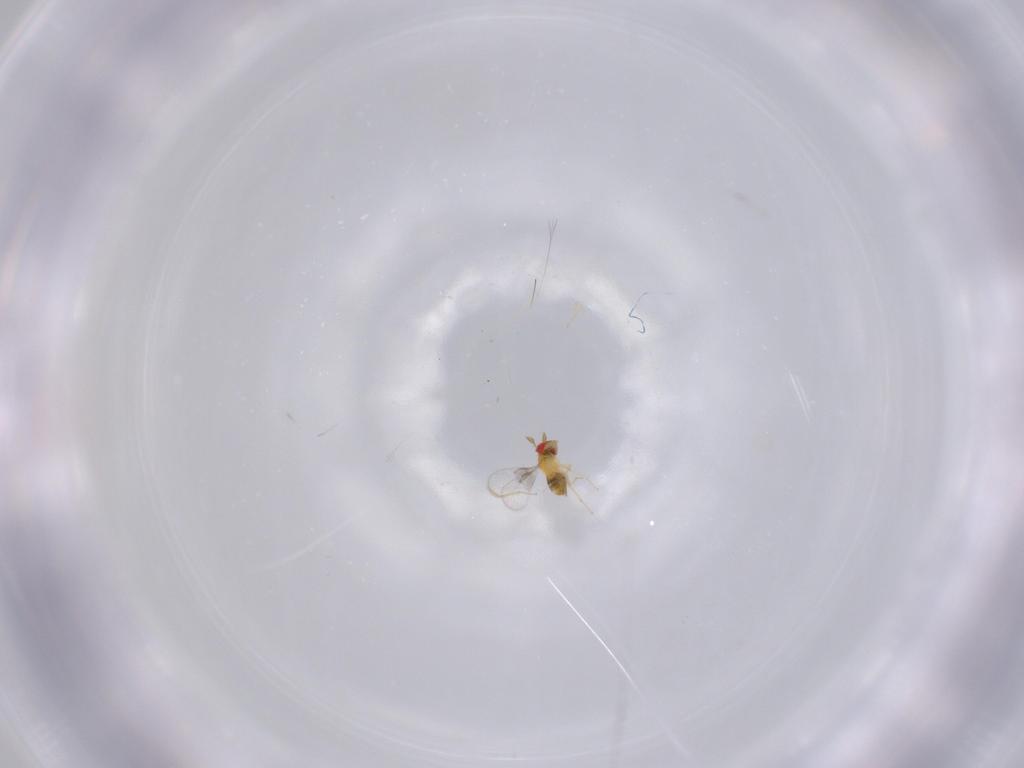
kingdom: Animalia
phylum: Arthropoda
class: Insecta
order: Hymenoptera
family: Trichogrammatidae
